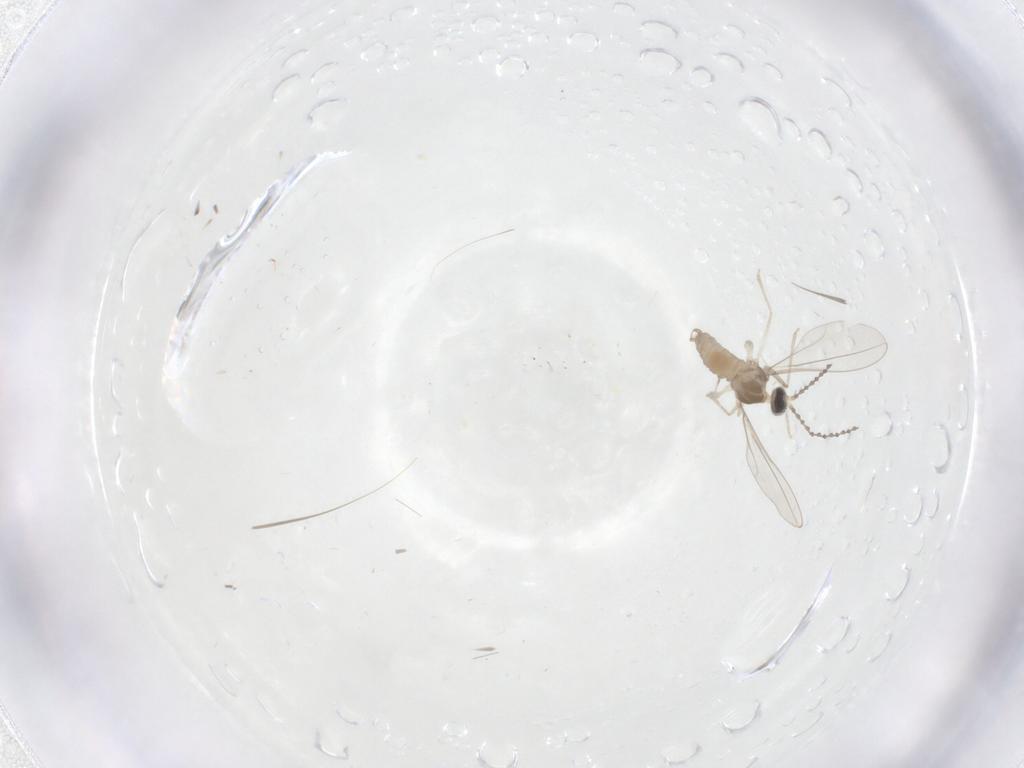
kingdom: Animalia
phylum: Arthropoda
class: Insecta
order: Diptera
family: Cecidomyiidae
